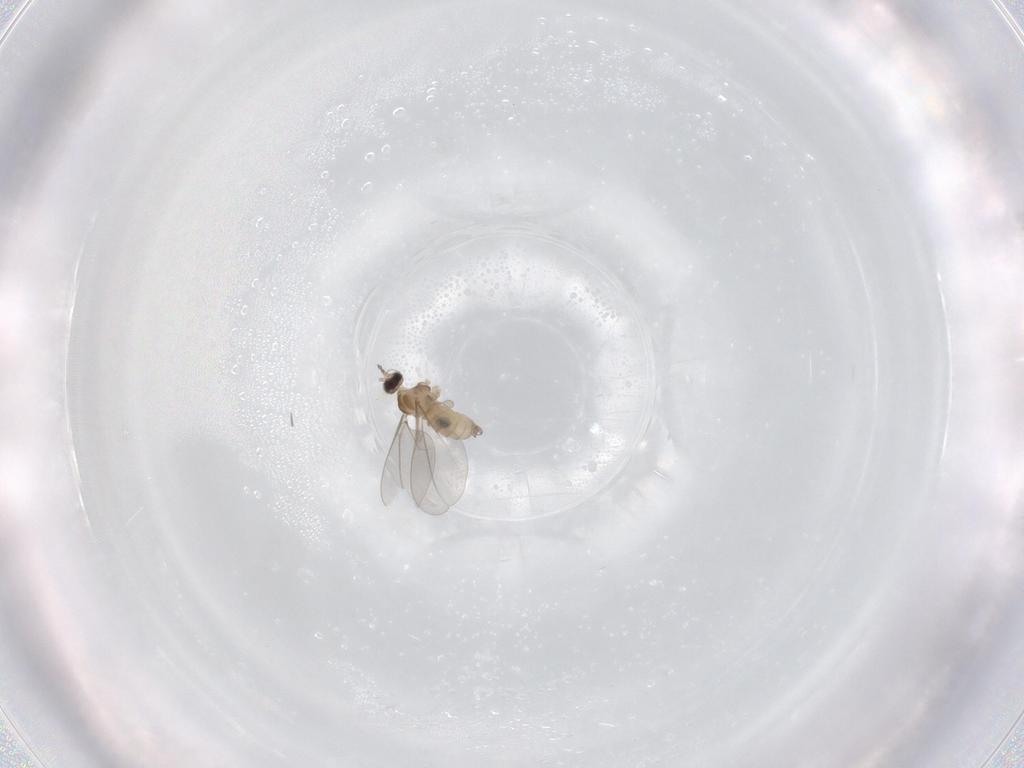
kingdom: Animalia
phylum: Arthropoda
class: Insecta
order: Diptera
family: Cecidomyiidae
